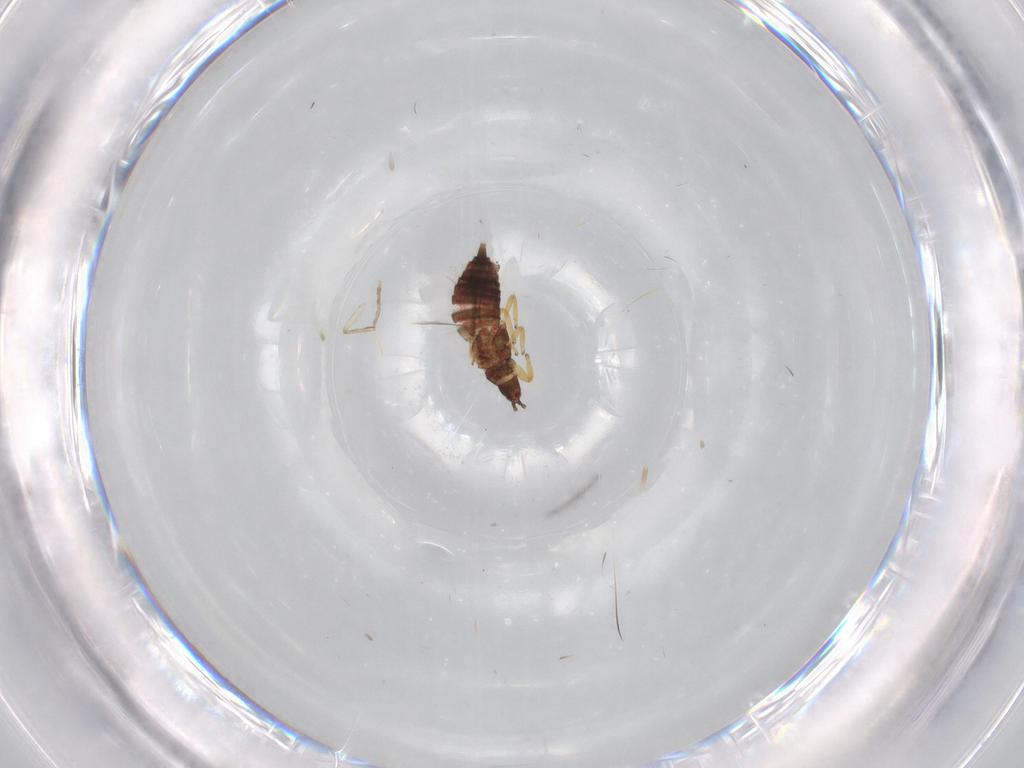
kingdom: Animalia
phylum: Arthropoda
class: Insecta
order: Thysanoptera
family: Phlaeothripidae
